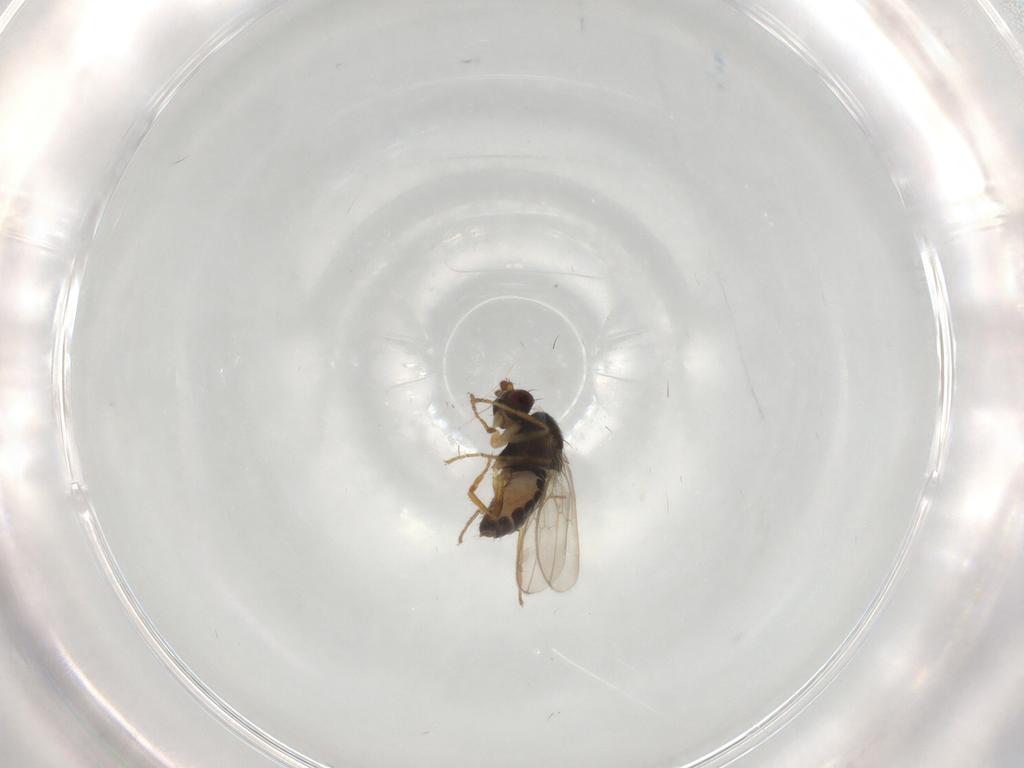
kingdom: Animalia
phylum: Arthropoda
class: Insecta
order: Diptera
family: Sphaeroceridae
